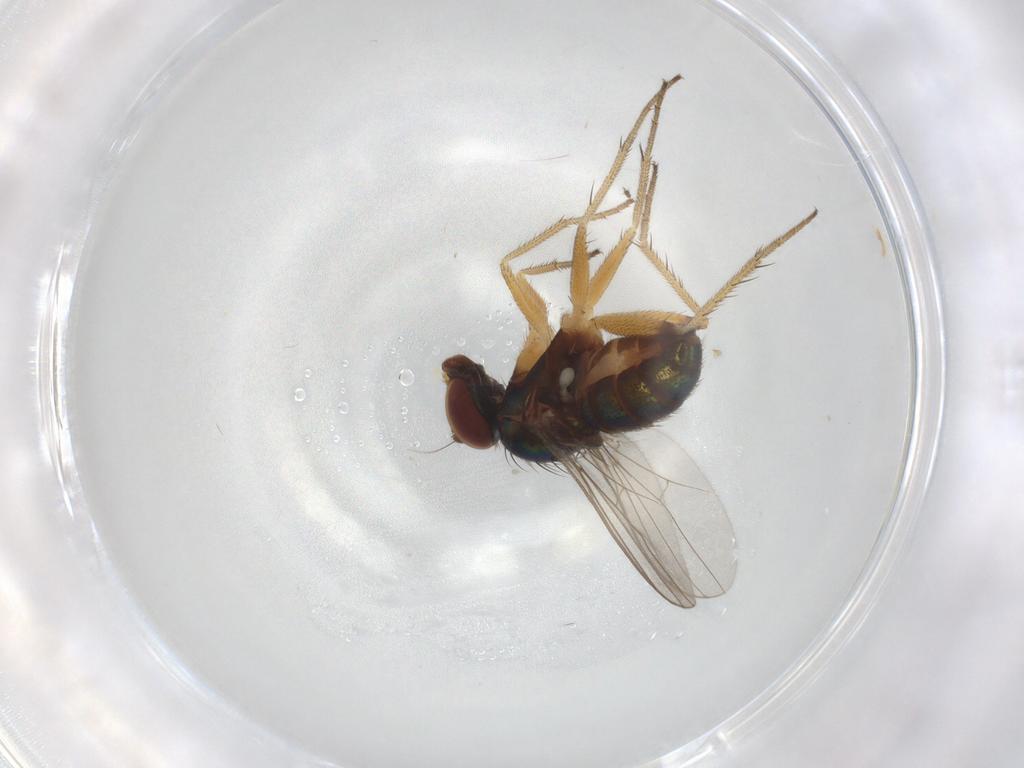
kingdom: Animalia
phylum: Arthropoda
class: Insecta
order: Diptera
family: Dolichopodidae
